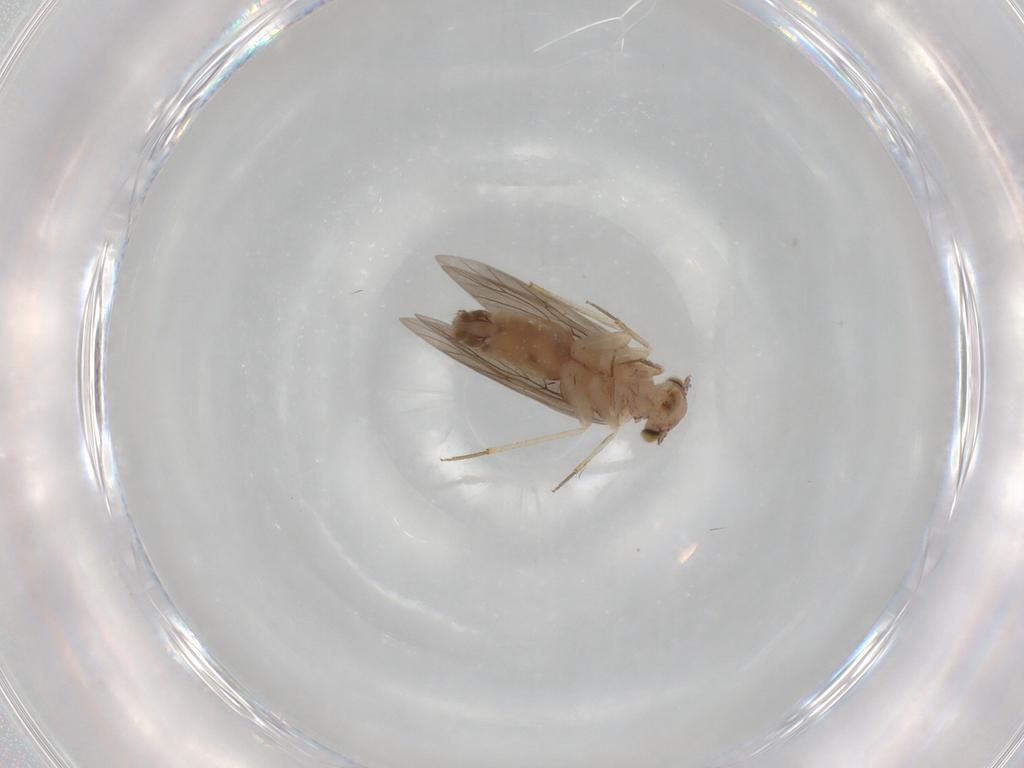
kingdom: Animalia
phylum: Arthropoda
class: Insecta
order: Psocodea
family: Lepidopsocidae
